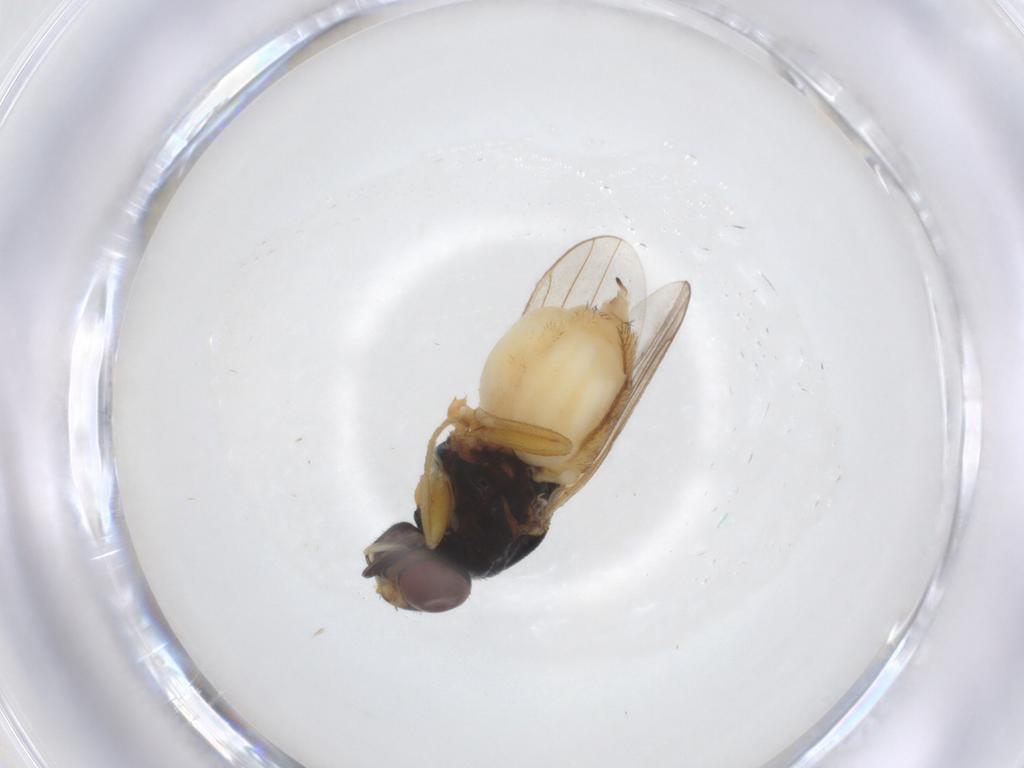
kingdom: Animalia
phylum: Arthropoda
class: Insecta
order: Diptera
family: Chloropidae
